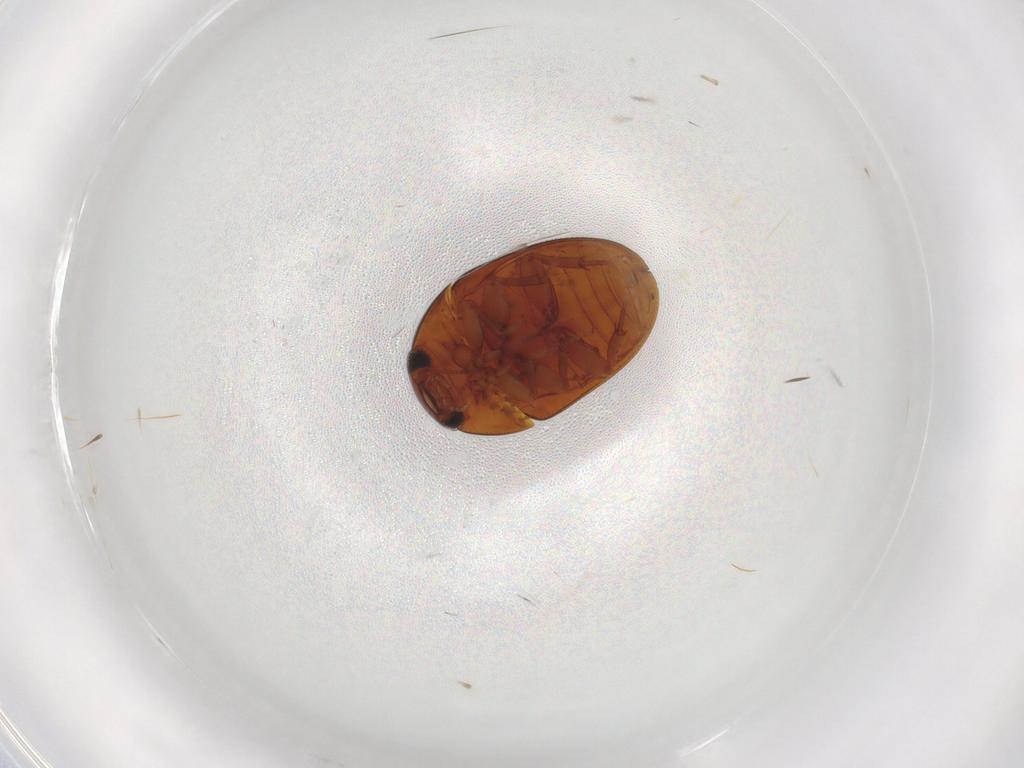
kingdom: Animalia
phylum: Arthropoda
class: Insecta
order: Coleoptera
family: Phalacridae
